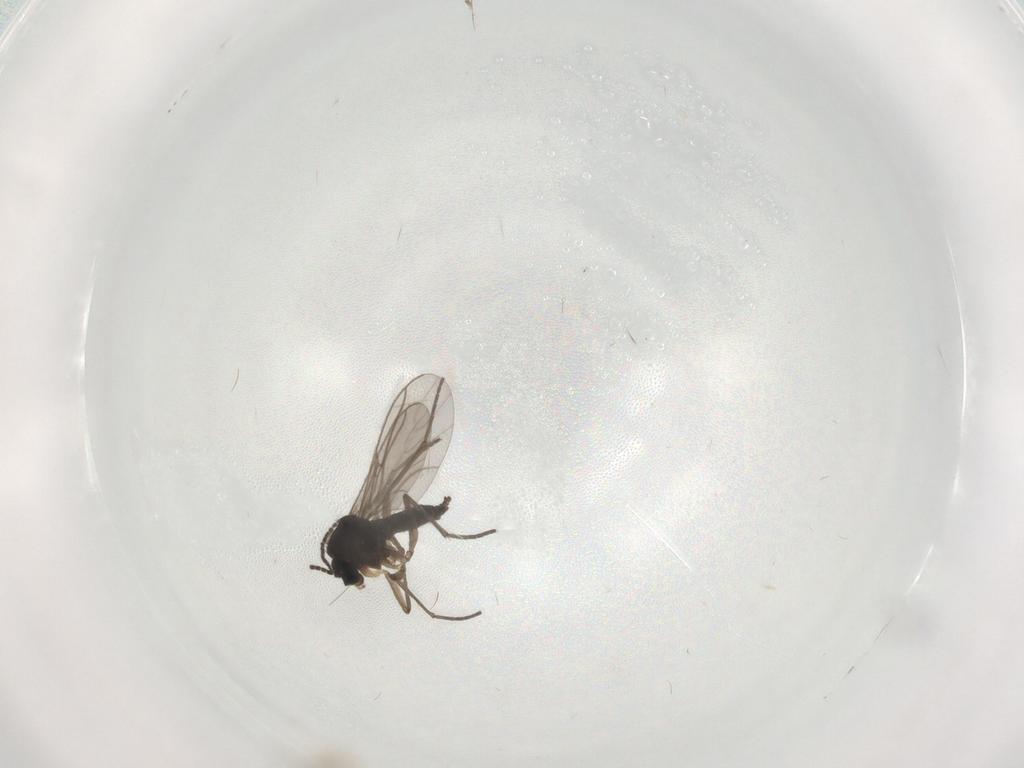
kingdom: Animalia
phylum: Arthropoda
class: Insecta
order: Diptera
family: Sciaridae
